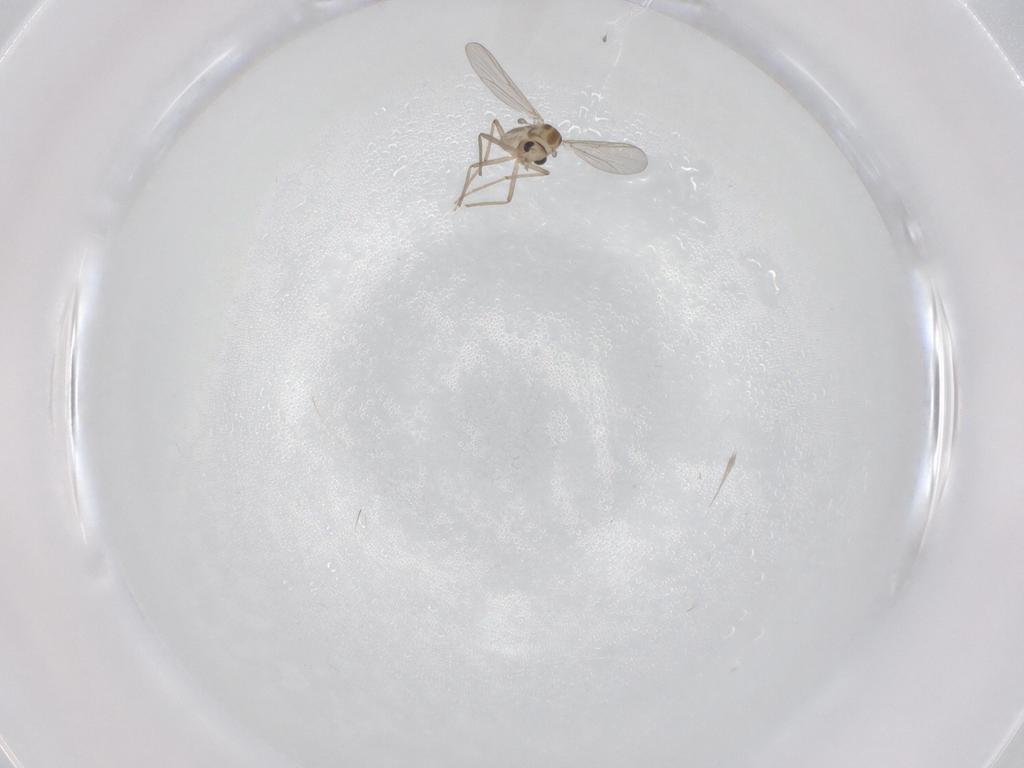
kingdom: Animalia
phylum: Arthropoda
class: Insecta
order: Diptera
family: Chironomidae
